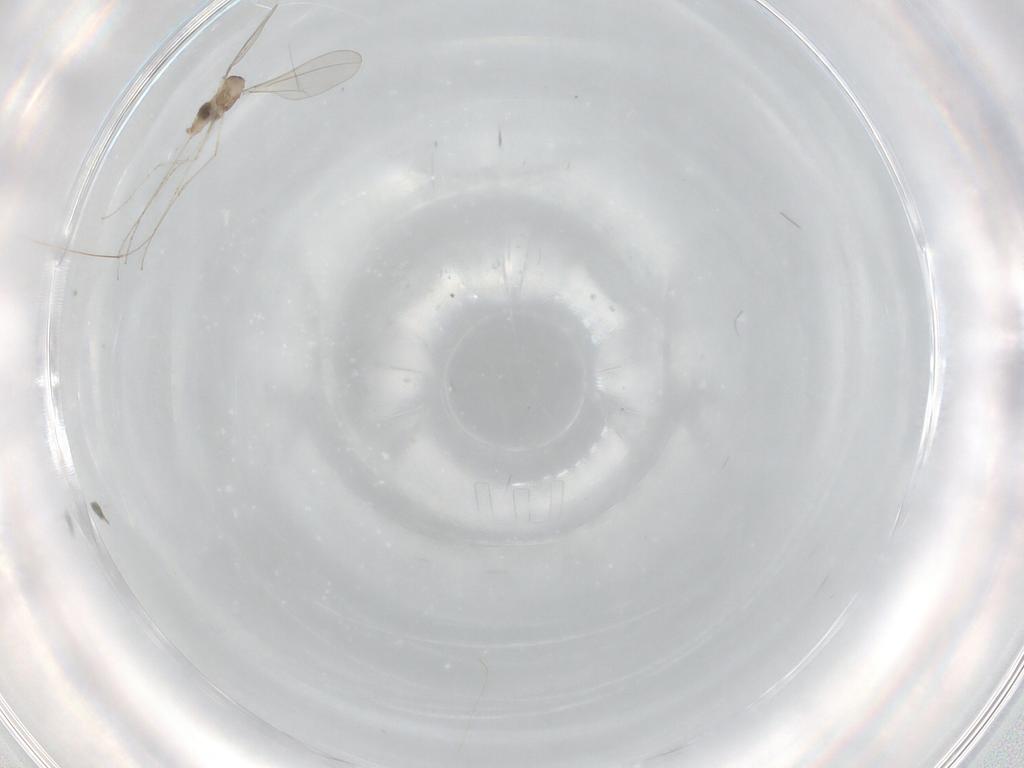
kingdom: Animalia
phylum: Arthropoda
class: Insecta
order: Diptera
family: Cecidomyiidae
